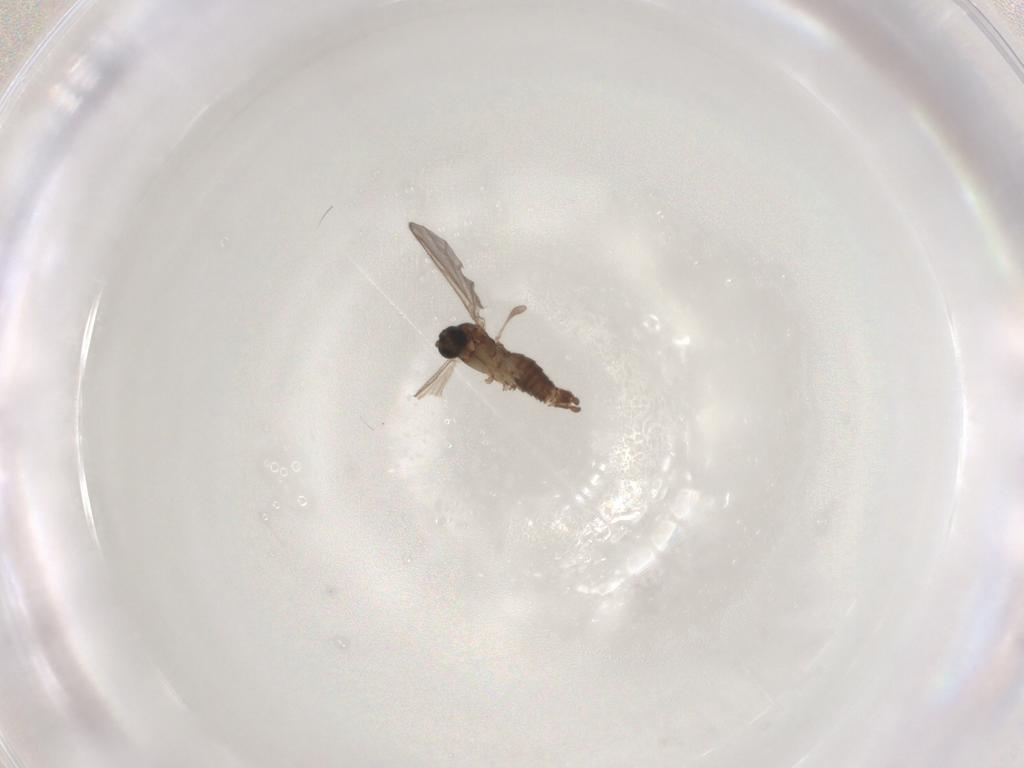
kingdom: Animalia
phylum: Arthropoda
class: Insecta
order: Diptera
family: Sciaridae
